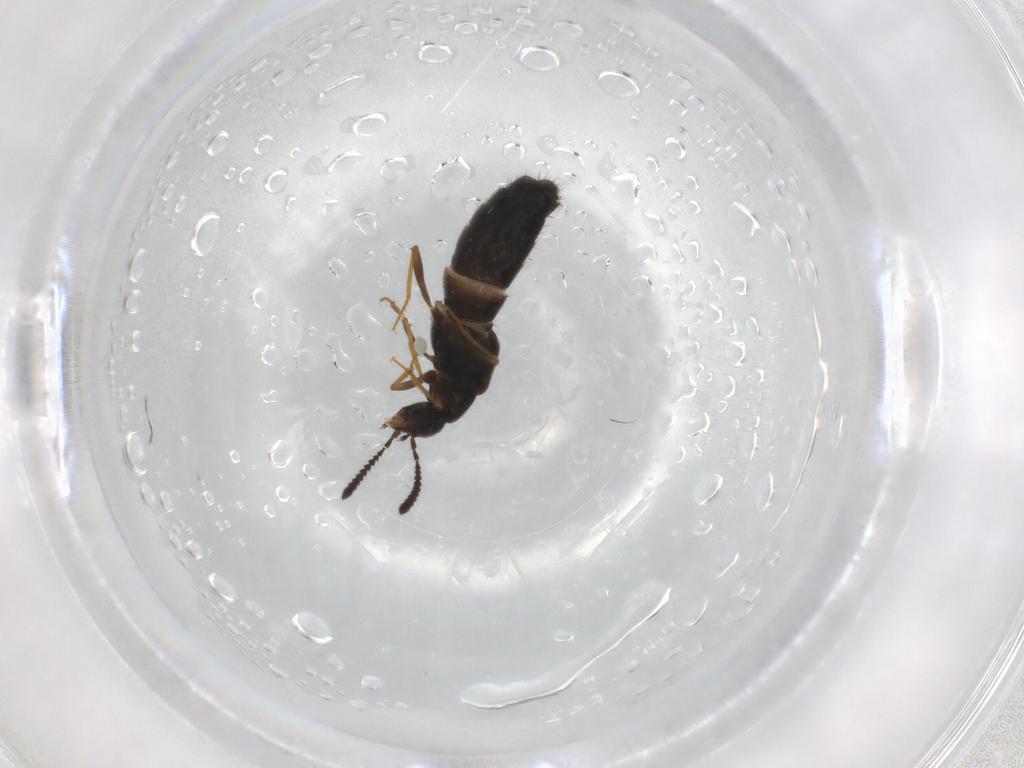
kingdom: Animalia
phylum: Arthropoda
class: Insecta
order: Coleoptera
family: Staphylinidae
